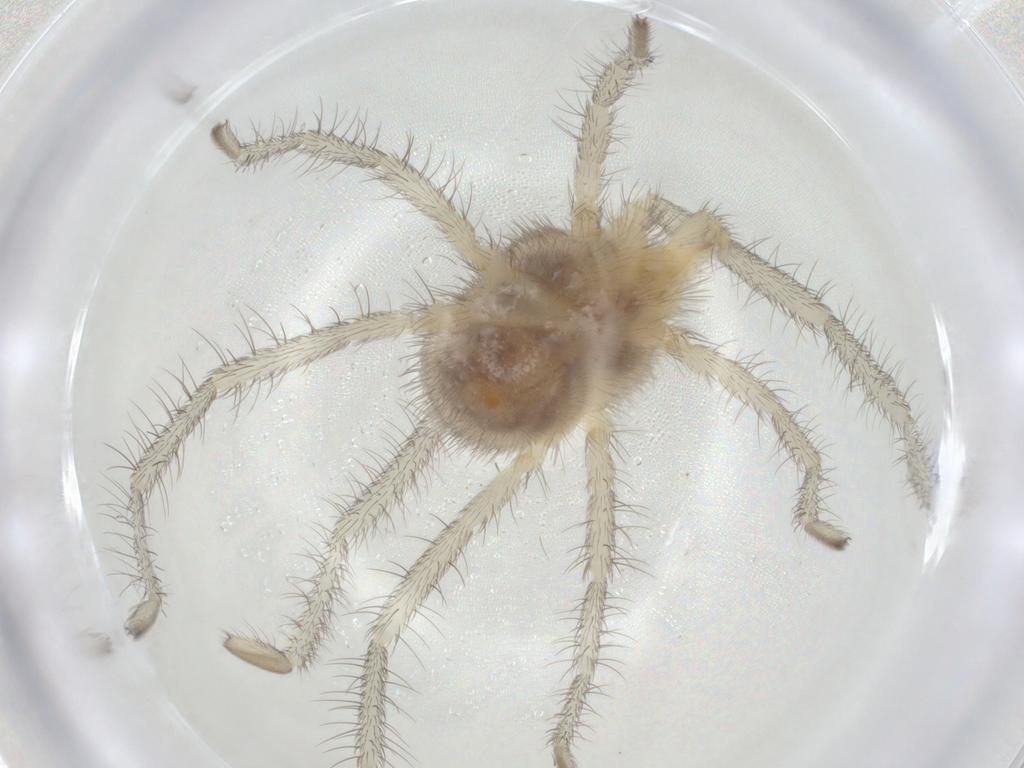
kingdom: Animalia
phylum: Arthropoda
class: Arachnida
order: Trombidiformes
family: Erythraeidae
